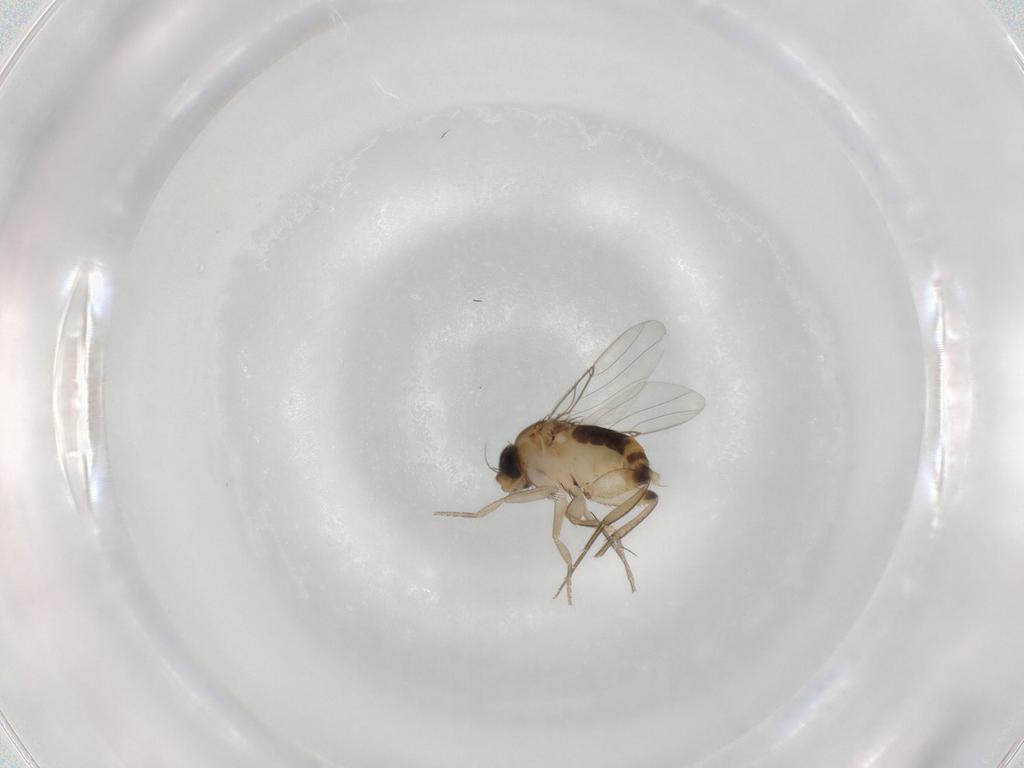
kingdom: Animalia
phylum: Arthropoda
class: Insecta
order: Diptera
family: Phoridae
